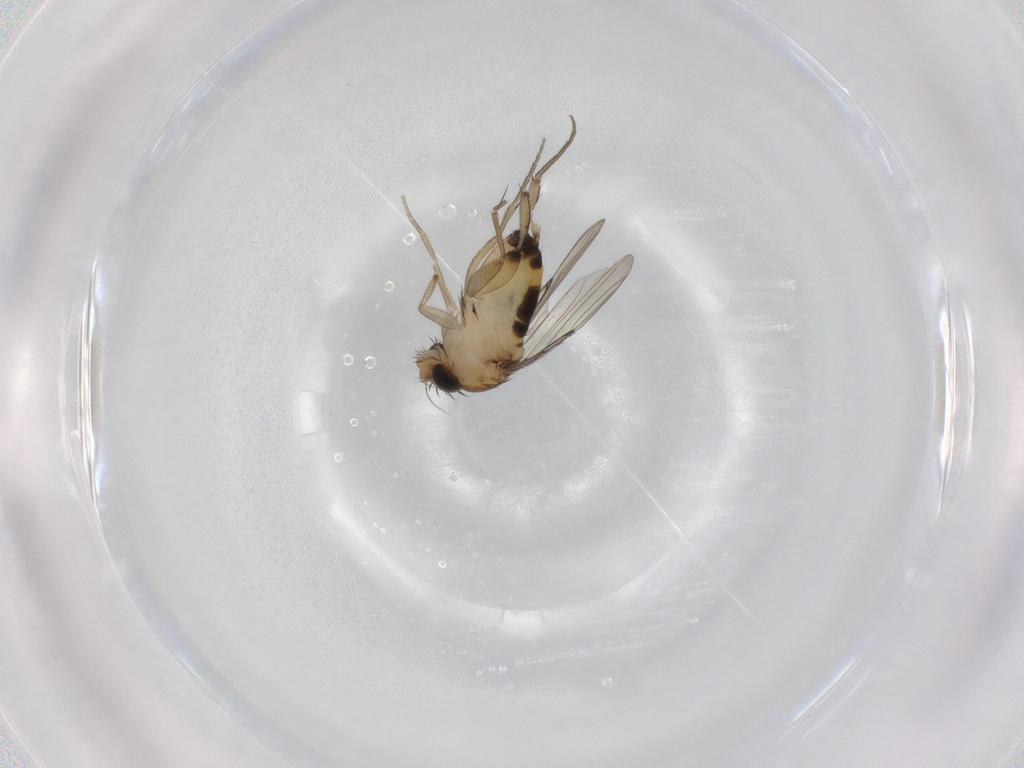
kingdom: Animalia
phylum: Arthropoda
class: Insecta
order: Diptera
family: Phoridae
